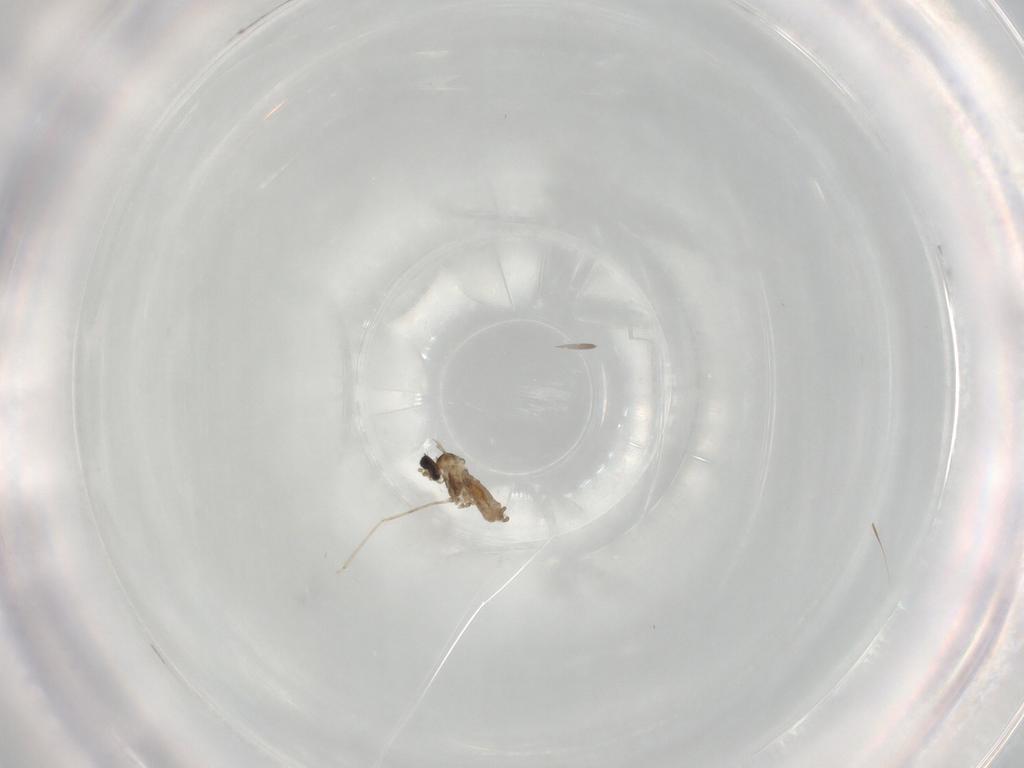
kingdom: Animalia
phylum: Arthropoda
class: Insecta
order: Diptera
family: Cecidomyiidae
